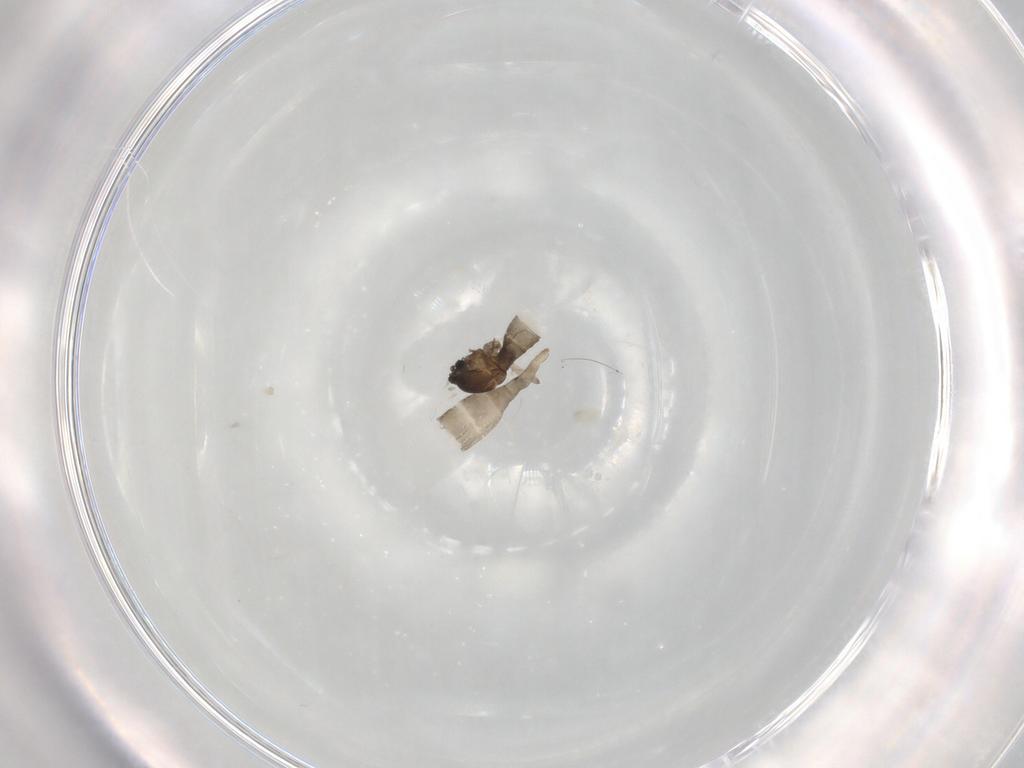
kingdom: Animalia
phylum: Arthropoda
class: Insecta
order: Diptera
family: Cecidomyiidae
